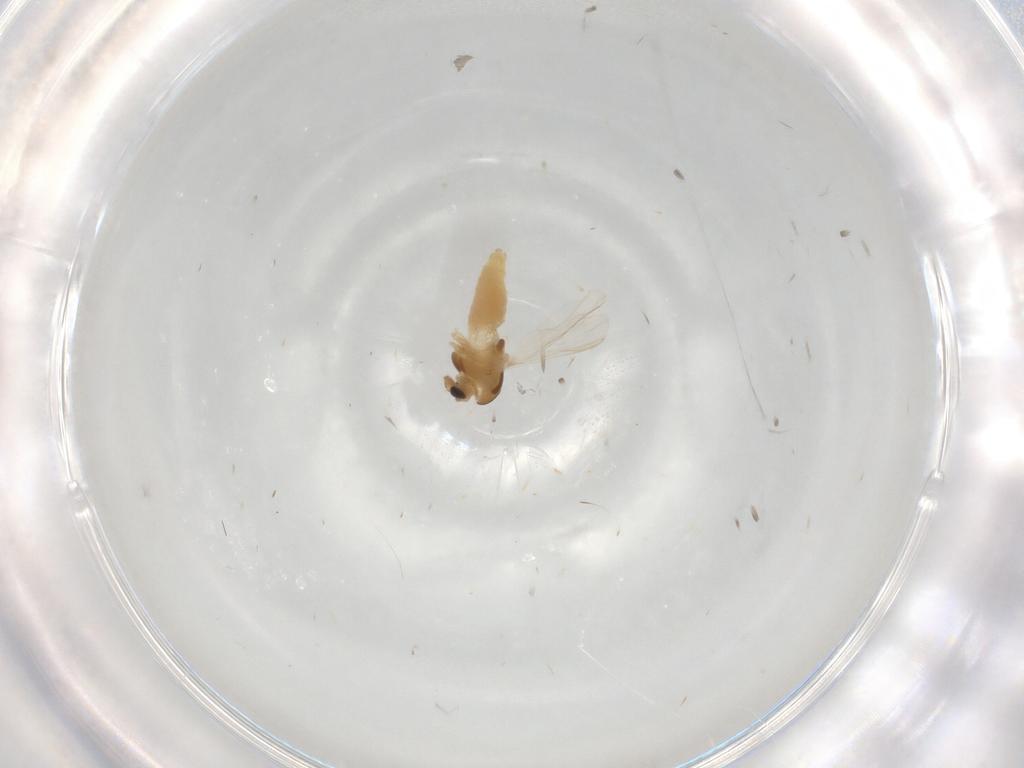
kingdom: Animalia
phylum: Arthropoda
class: Insecta
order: Diptera
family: Chironomidae
